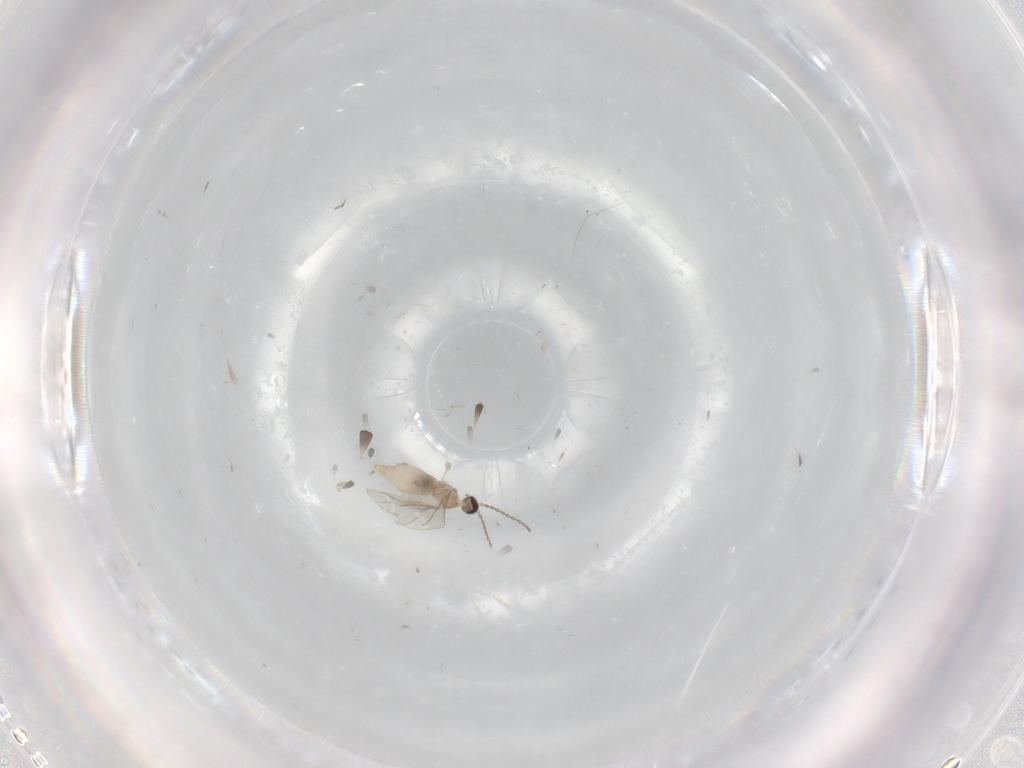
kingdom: Animalia
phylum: Arthropoda
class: Insecta
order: Diptera
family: Cecidomyiidae
